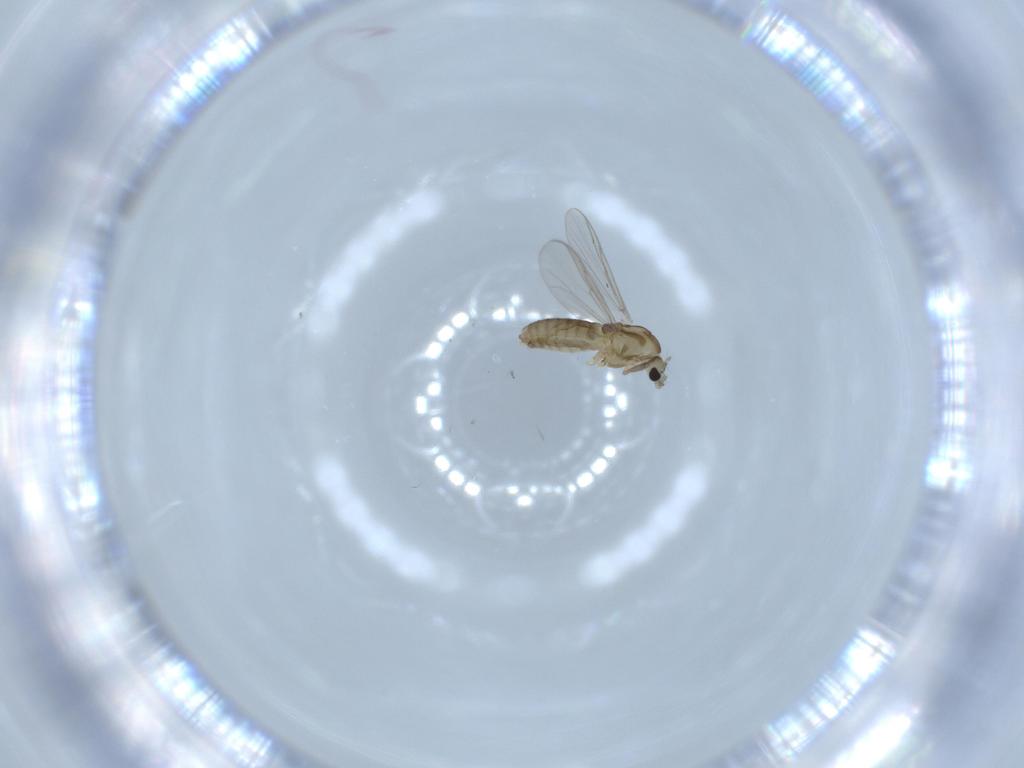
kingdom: Animalia
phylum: Arthropoda
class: Insecta
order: Diptera
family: Chironomidae
